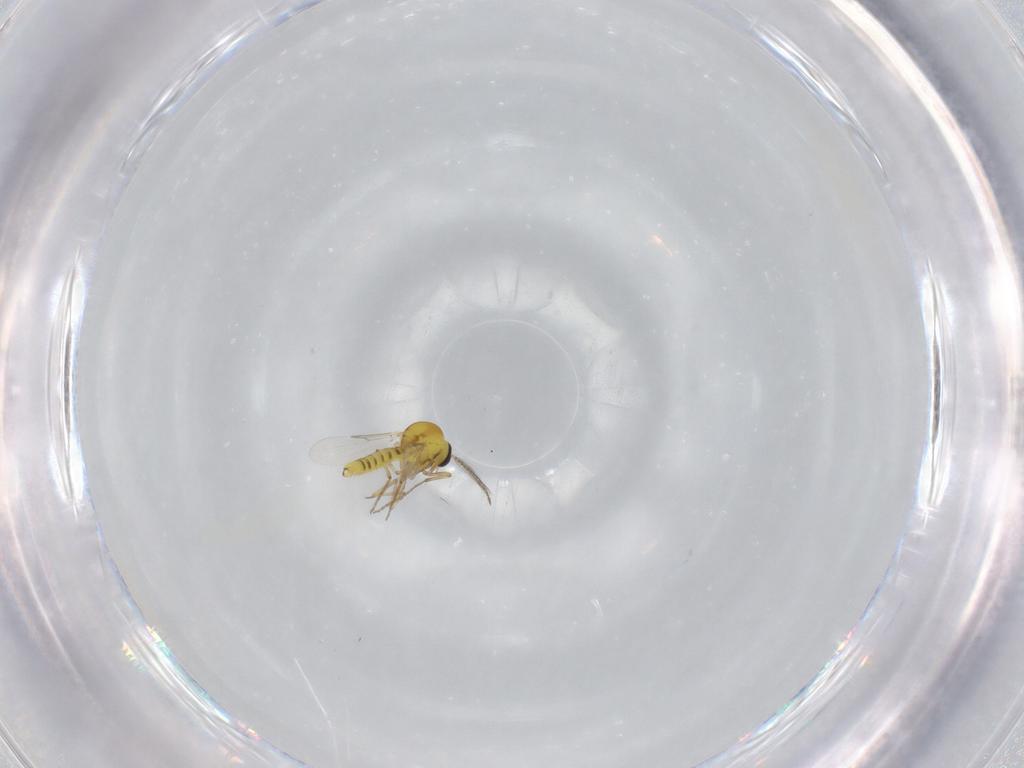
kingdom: Animalia
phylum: Arthropoda
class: Insecta
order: Diptera
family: Ceratopogonidae
